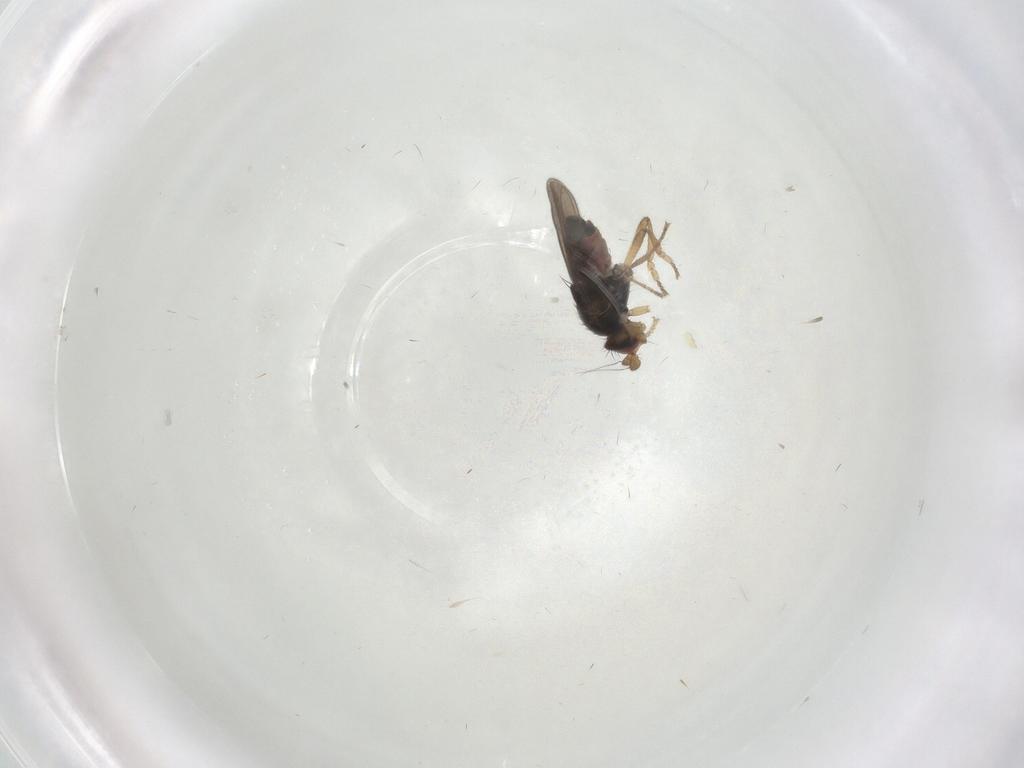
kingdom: Animalia
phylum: Arthropoda
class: Insecta
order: Diptera
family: Sphaeroceridae
